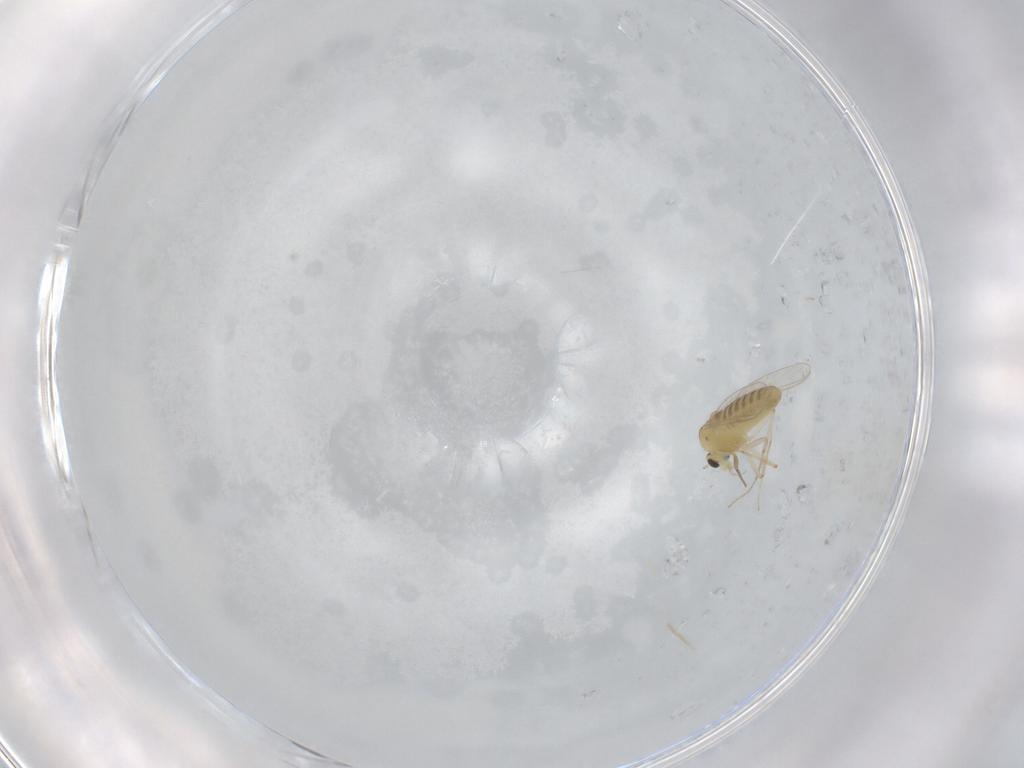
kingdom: Animalia
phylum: Arthropoda
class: Insecta
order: Diptera
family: Chironomidae
